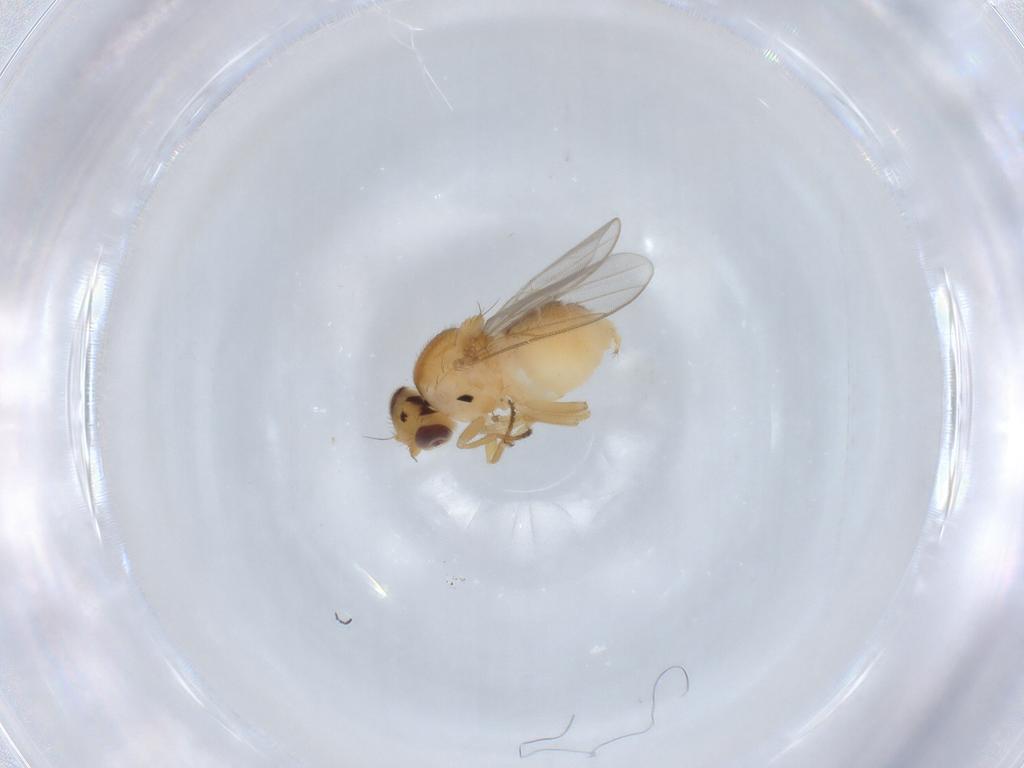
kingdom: Animalia
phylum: Arthropoda
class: Insecta
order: Diptera
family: Chloropidae
